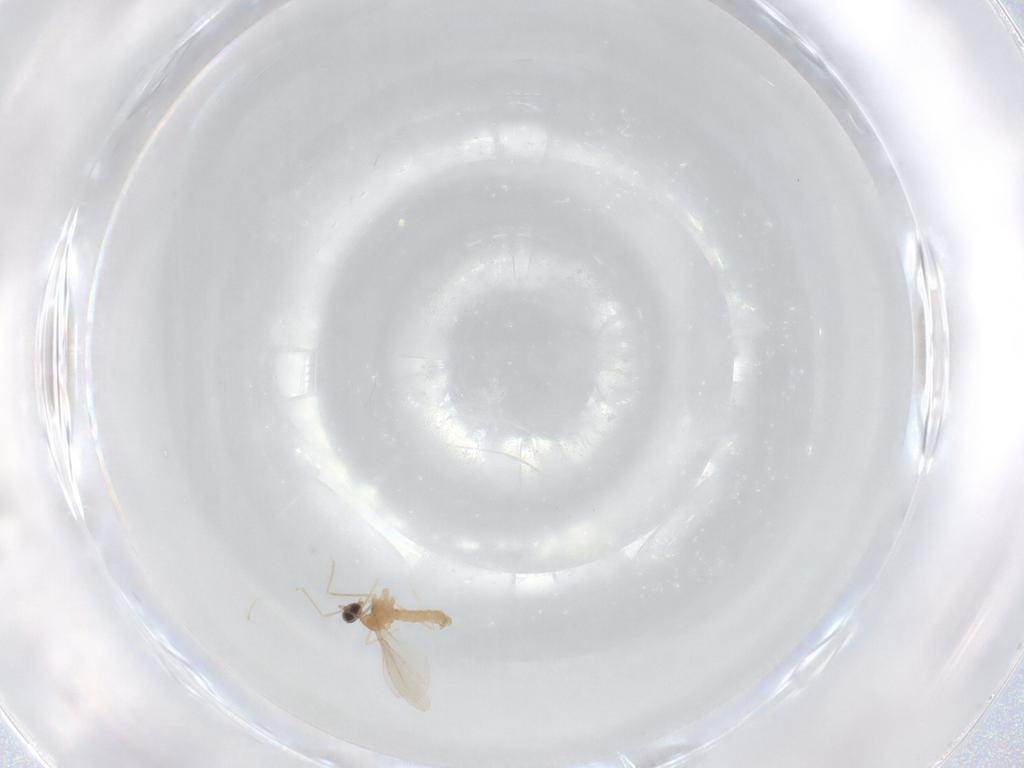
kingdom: Animalia
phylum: Arthropoda
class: Insecta
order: Diptera
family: Cecidomyiidae
